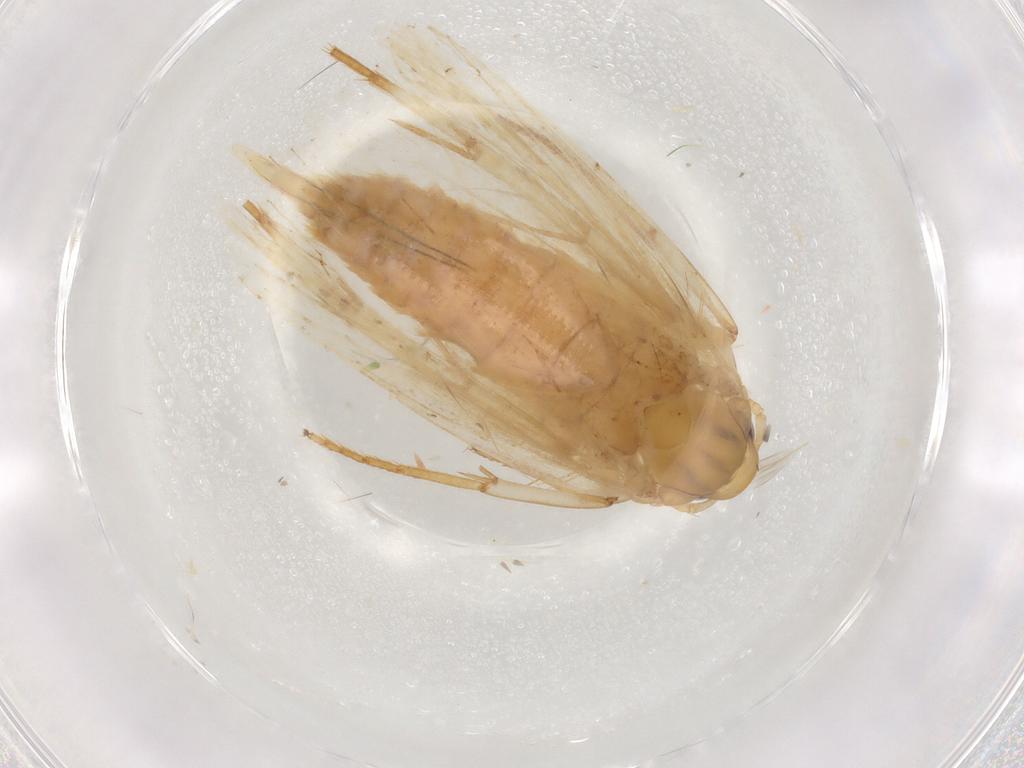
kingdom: Animalia
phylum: Arthropoda
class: Insecta
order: Lepidoptera
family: Depressariidae
